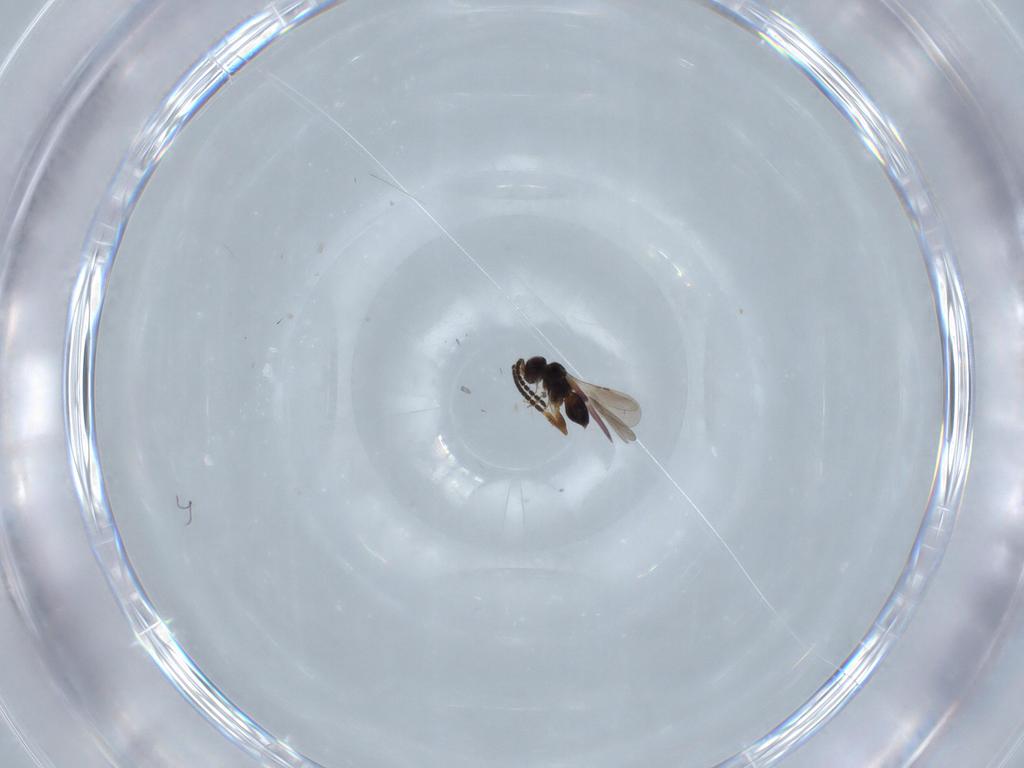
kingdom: Animalia
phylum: Arthropoda
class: Insecta
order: Hymenoptera
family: Ceraphronidae
